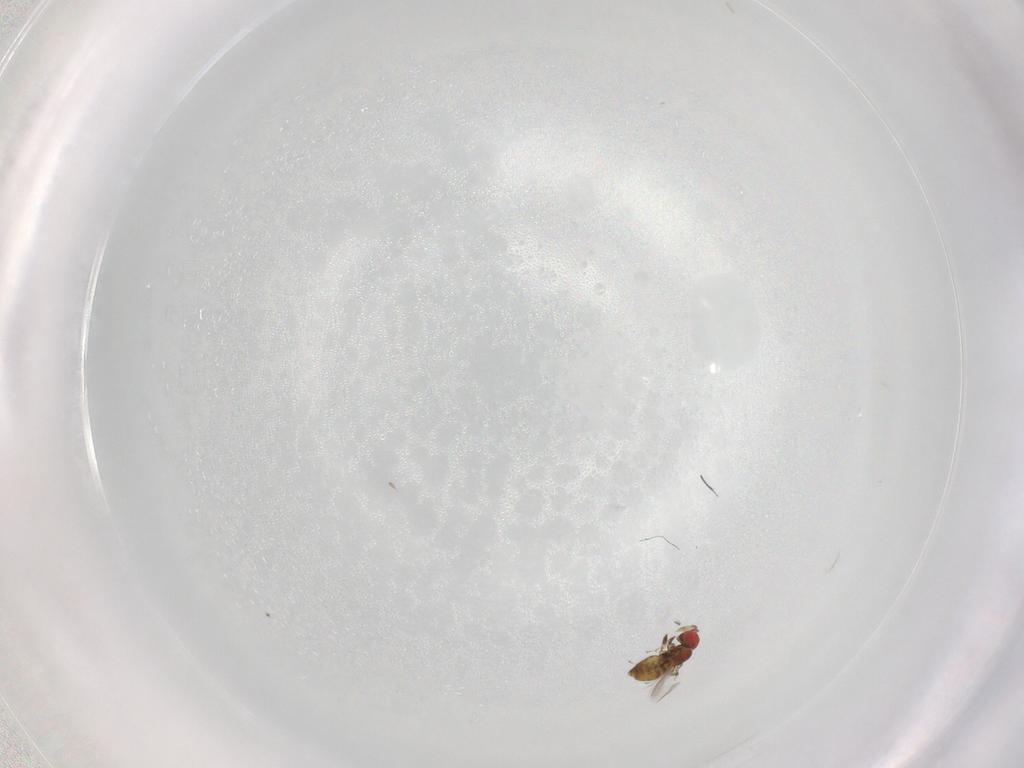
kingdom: Animalia
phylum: Arthropoda
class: Insecta
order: Hymenoptera
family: Trichogrammatidae
